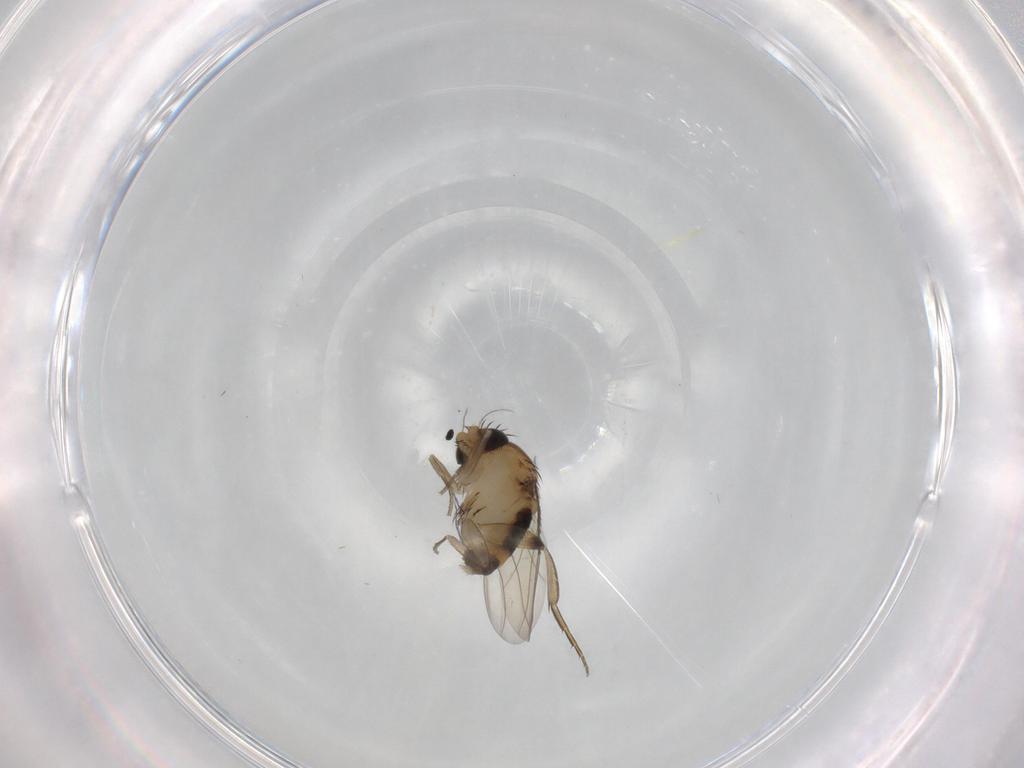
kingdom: Animalia
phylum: Arthropoda
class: Insecta
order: Diptera
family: Phoridae
